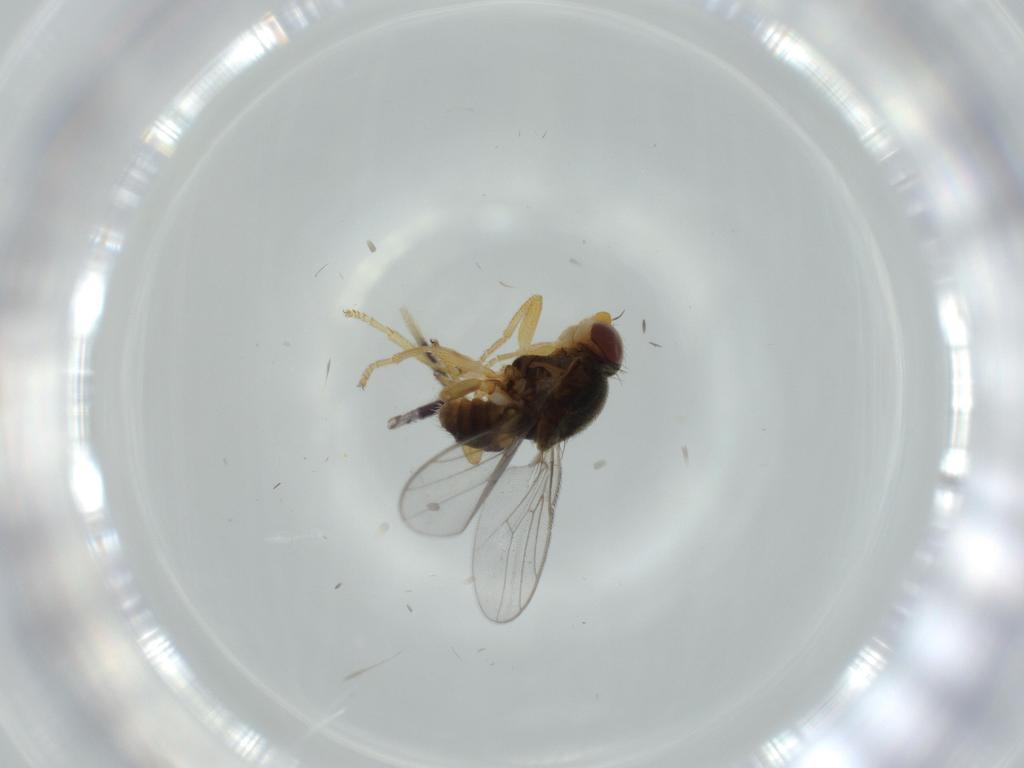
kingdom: Animalia
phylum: Arthropoda
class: Insecta
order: Diptera
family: Chloropidae
